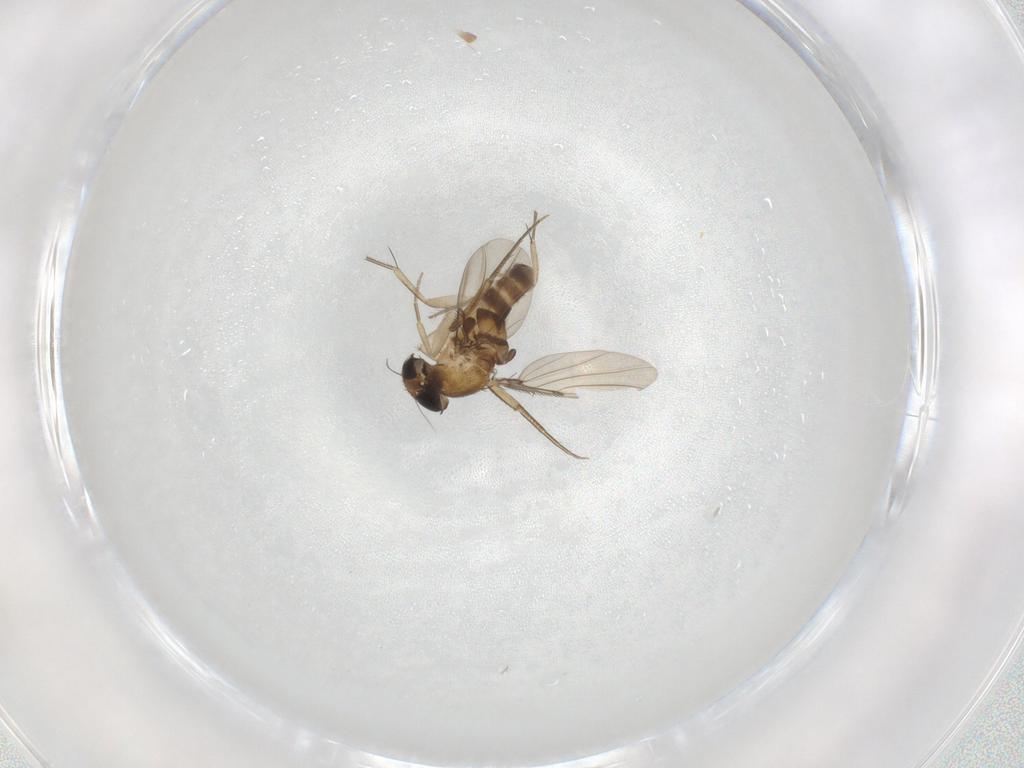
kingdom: Animalia
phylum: Arthropoda
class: Insecta
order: Diptera
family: Phoridae
